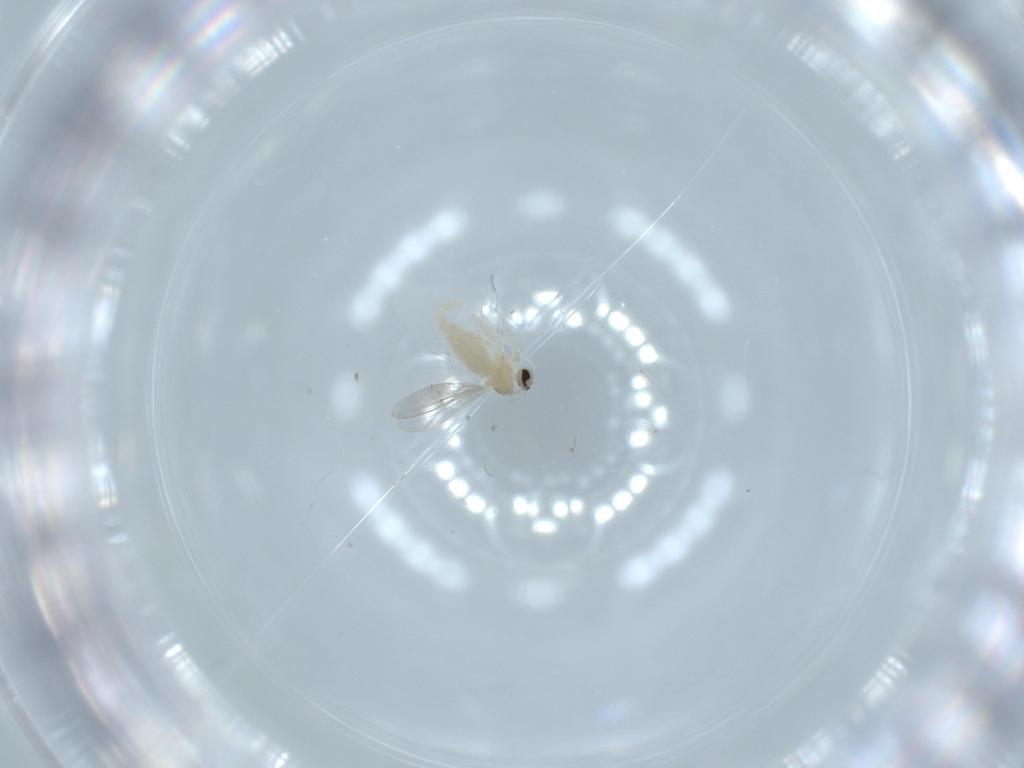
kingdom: Animalia
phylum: Arthropoda
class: Insecta
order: Diptera
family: Cecidomyiidae
